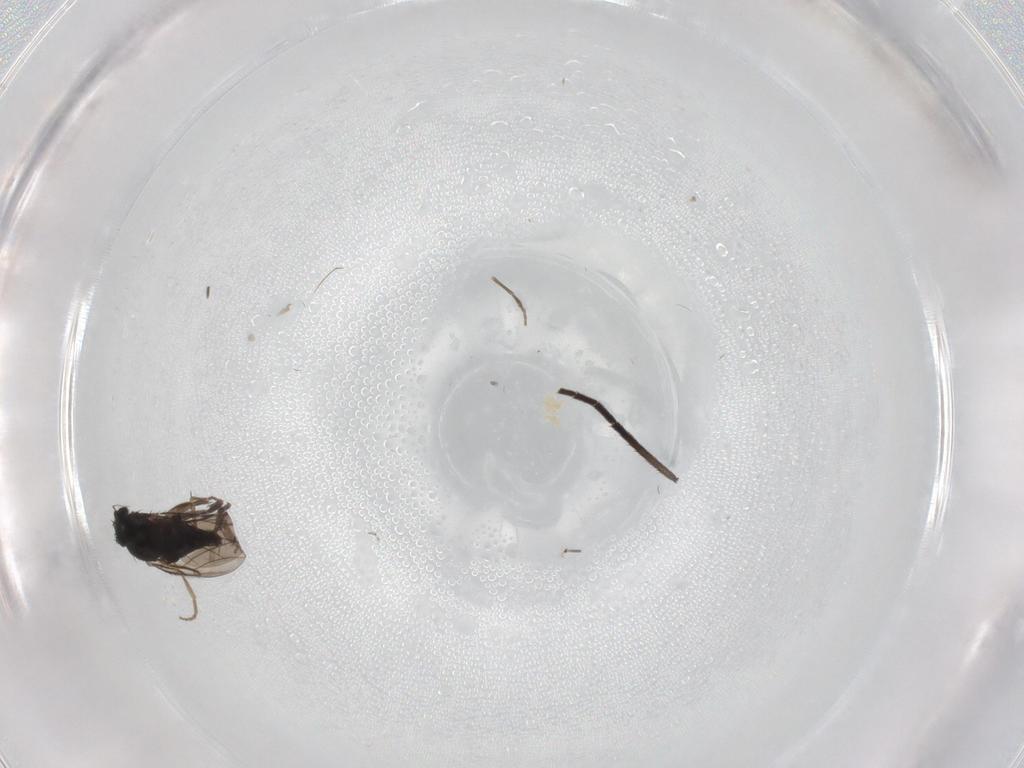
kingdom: Animalia
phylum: Arthropoda
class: Insecta
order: Diptera
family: Phoridae
